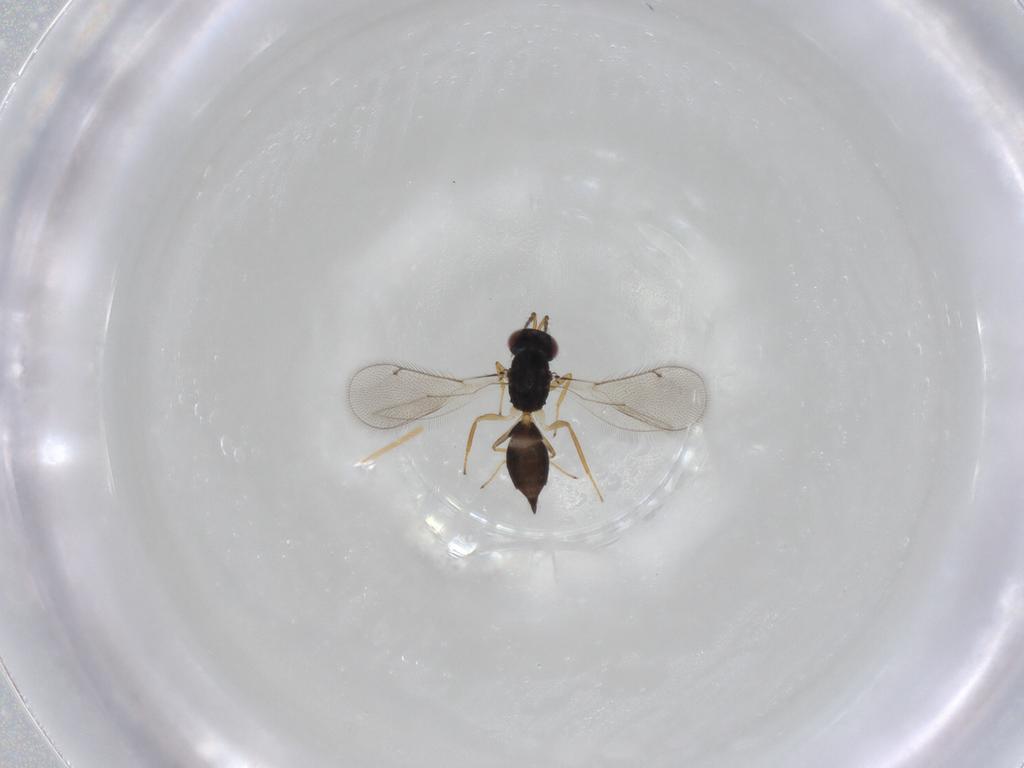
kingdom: Animalia
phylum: Arthropoda
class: Insecta
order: Hymenoptera
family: Eulophidae
